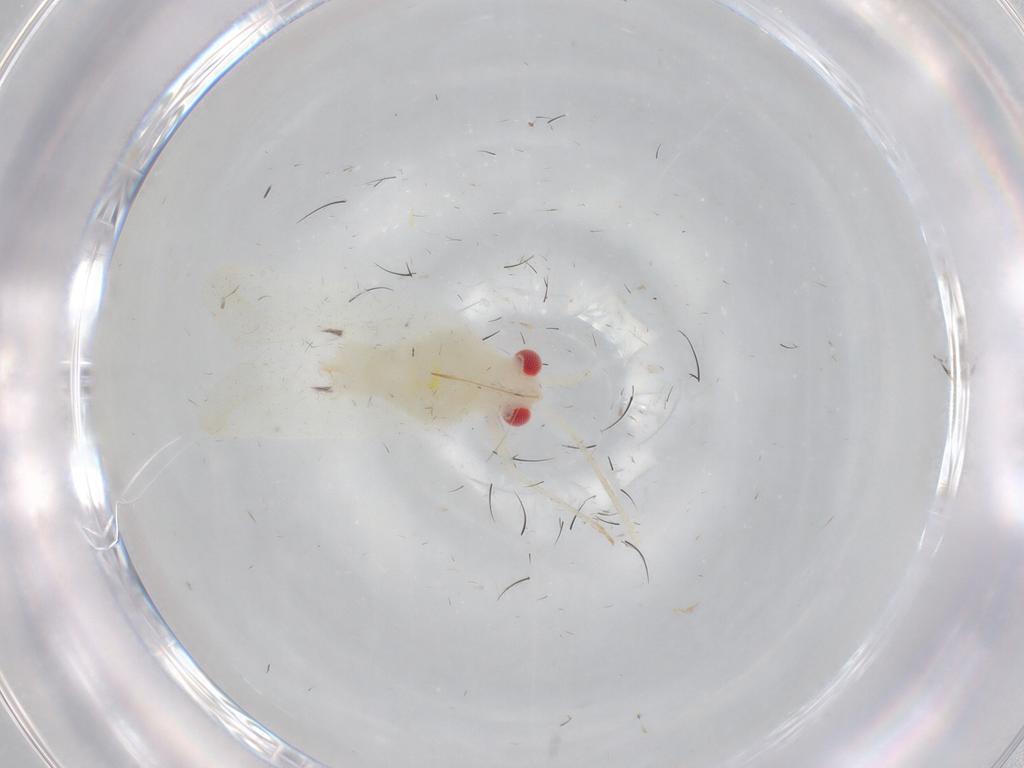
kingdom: Animalia
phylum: Arthropoda
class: Insecta
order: Hemiptera
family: Miridae
